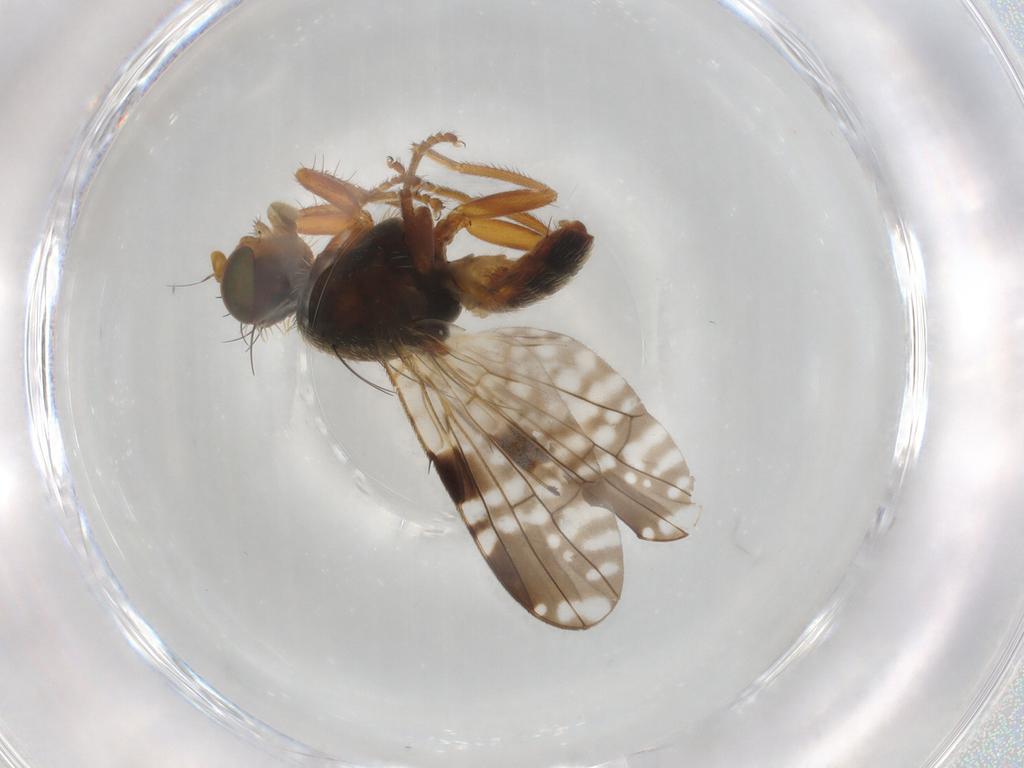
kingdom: Animalia
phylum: Arthropoda
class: Insecta
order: Diptera
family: Tephritidae
